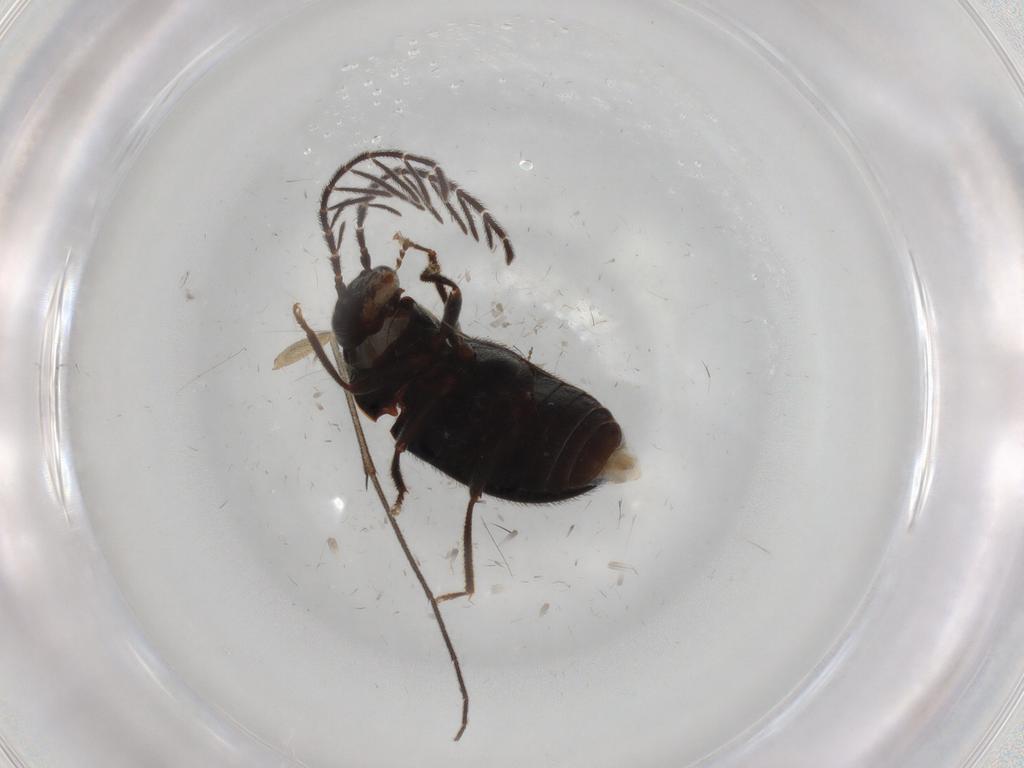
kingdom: Animalia
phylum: Arthropoda
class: Insecta
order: Coleoptera
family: Ptilodactylidae
